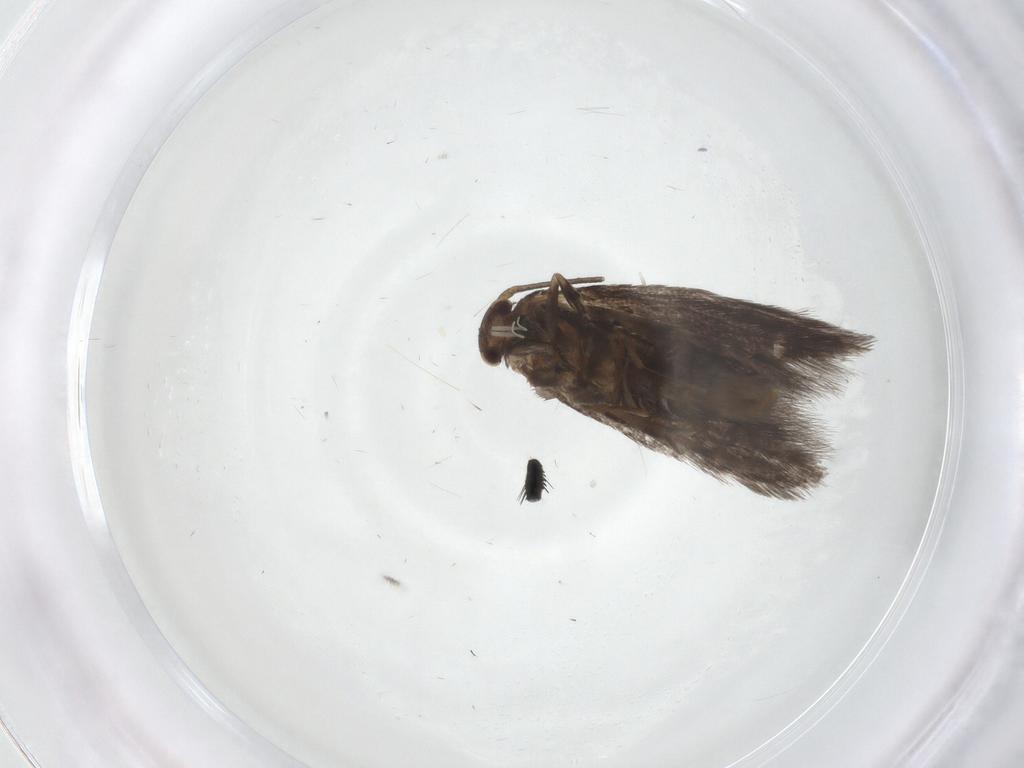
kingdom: Animalia
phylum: Arthropoda
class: Insecta
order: Lepidoptera
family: Elachistidae
